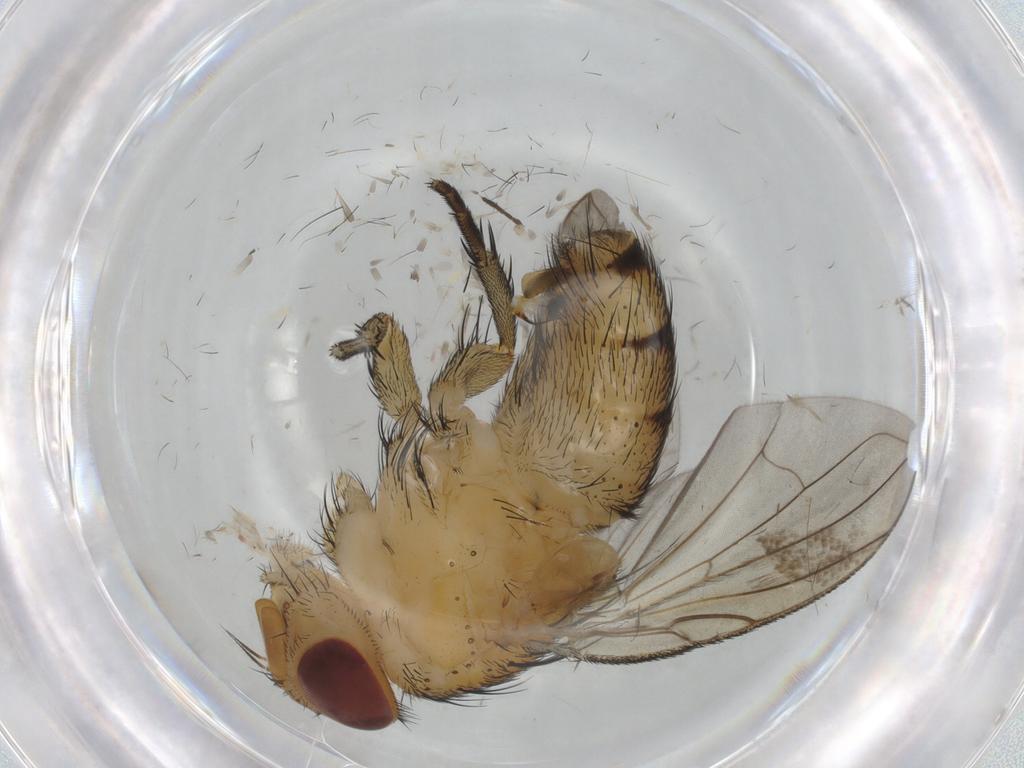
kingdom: Animalia
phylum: Arthropoda
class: Insecta
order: Diptera
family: Calliphoridae
